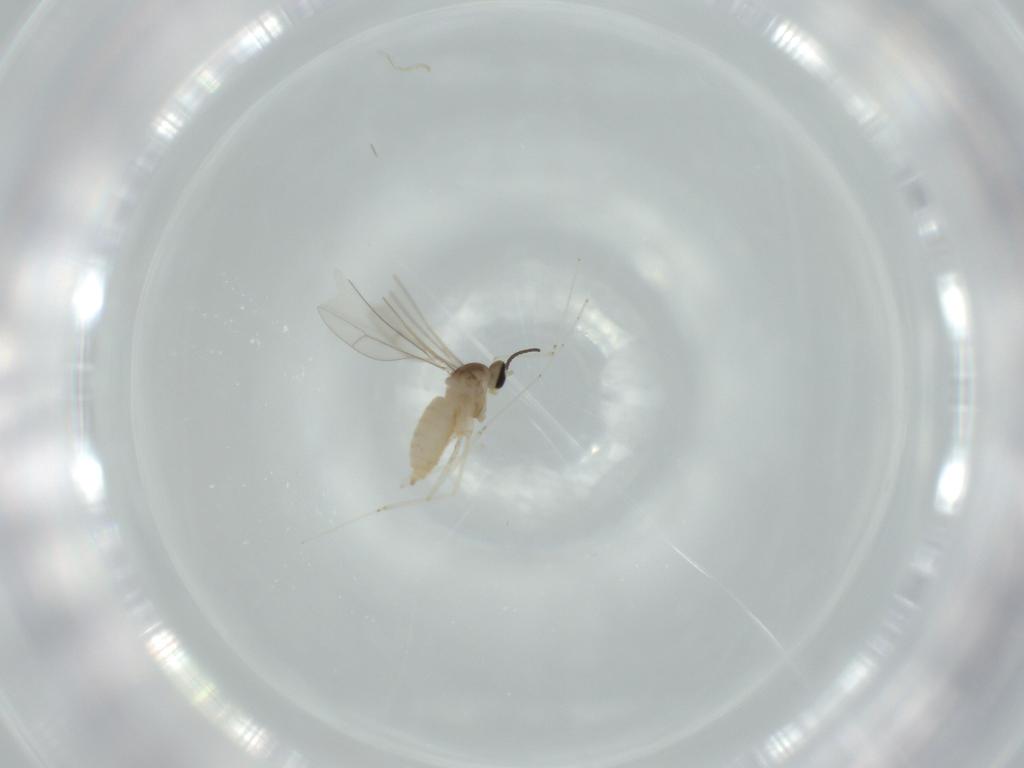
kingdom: Animalia
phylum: Arthropoda
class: Insecta
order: Diptera
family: Cecidomyiidae
